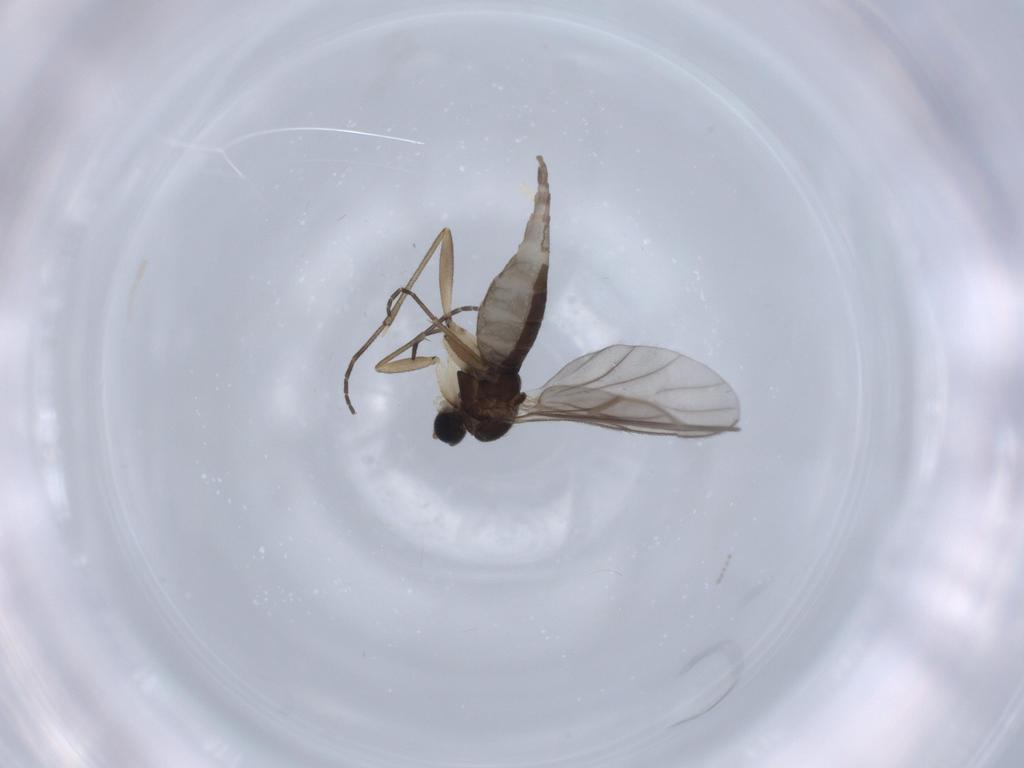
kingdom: Animalia
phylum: Arthropoda
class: Insecta
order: Diptera
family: Sciaridae
